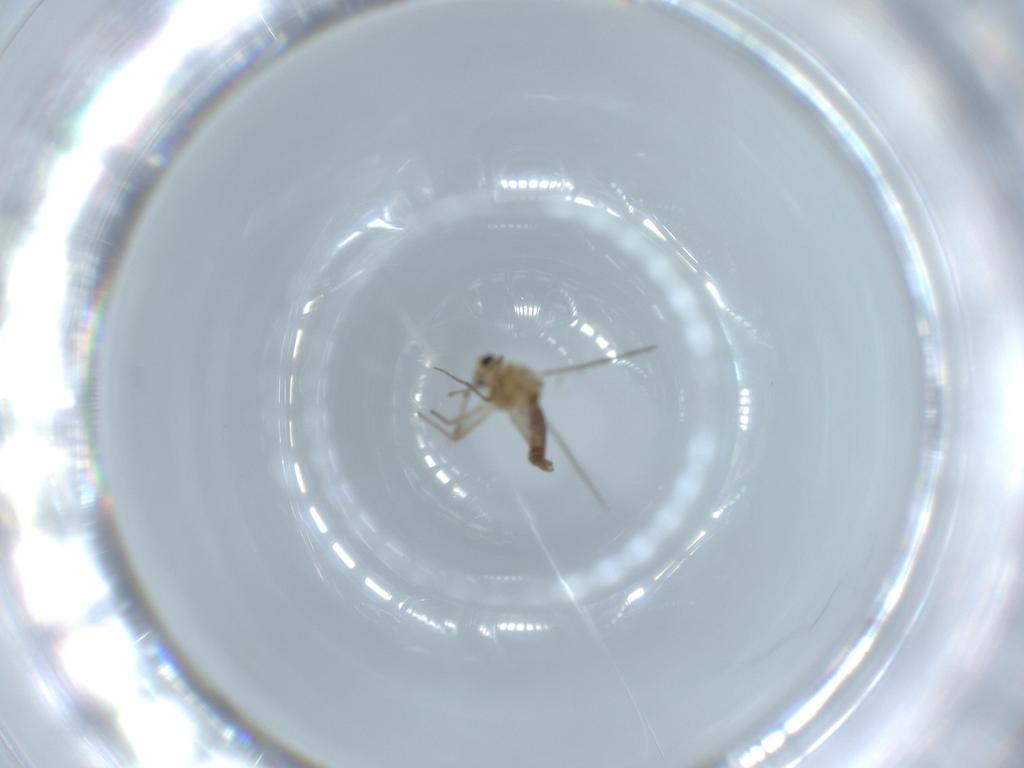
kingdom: Animalia
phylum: Arthropoda
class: Insecta
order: Diptera
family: Chironomidae
